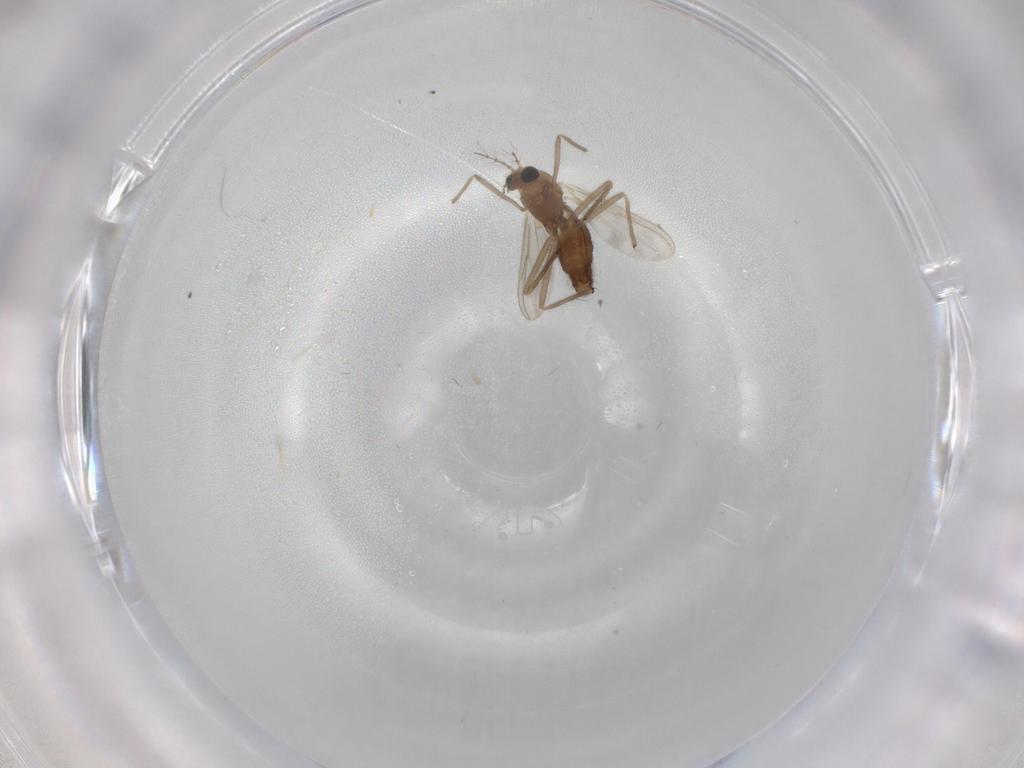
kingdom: Animalia
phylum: Arthropoda
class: Insecta
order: Diptera
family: Chironomidae
